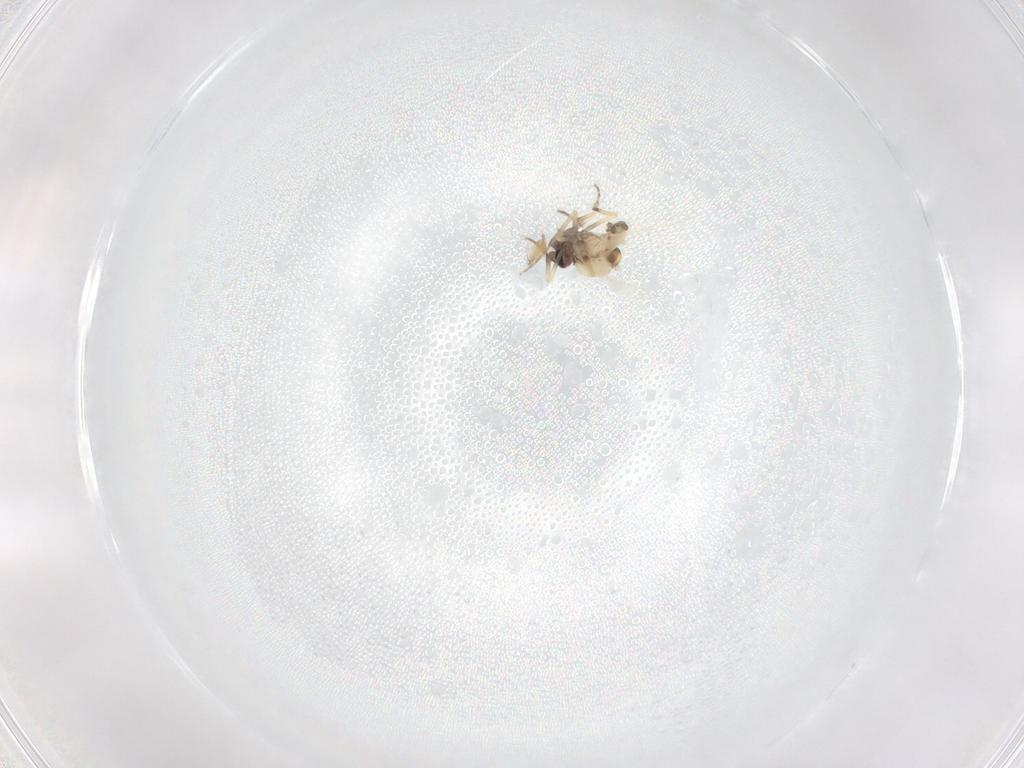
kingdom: Animalia
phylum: Arthropoda
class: Insecta
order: Diptera
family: Ceratopogonidae
